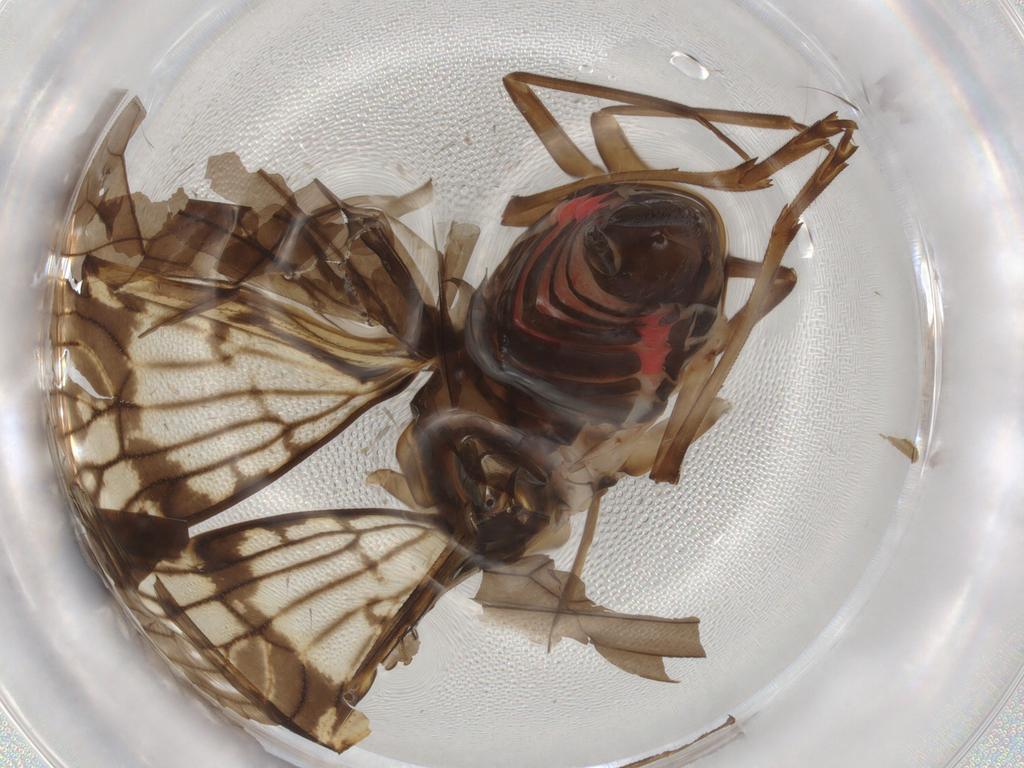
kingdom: Animalia
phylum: Arthropoda
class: Insecta
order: Hemiptera
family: Cixiidae
